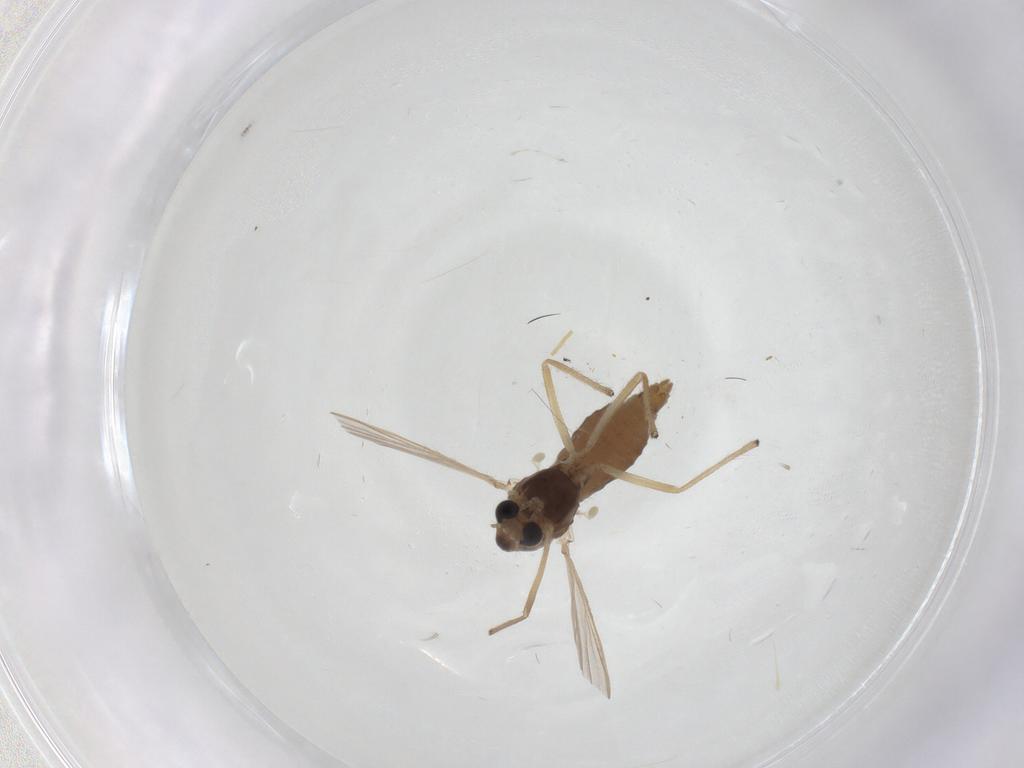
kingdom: Animalia
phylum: Arthropoda
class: Insecta
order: Diptera
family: Chironomidae
